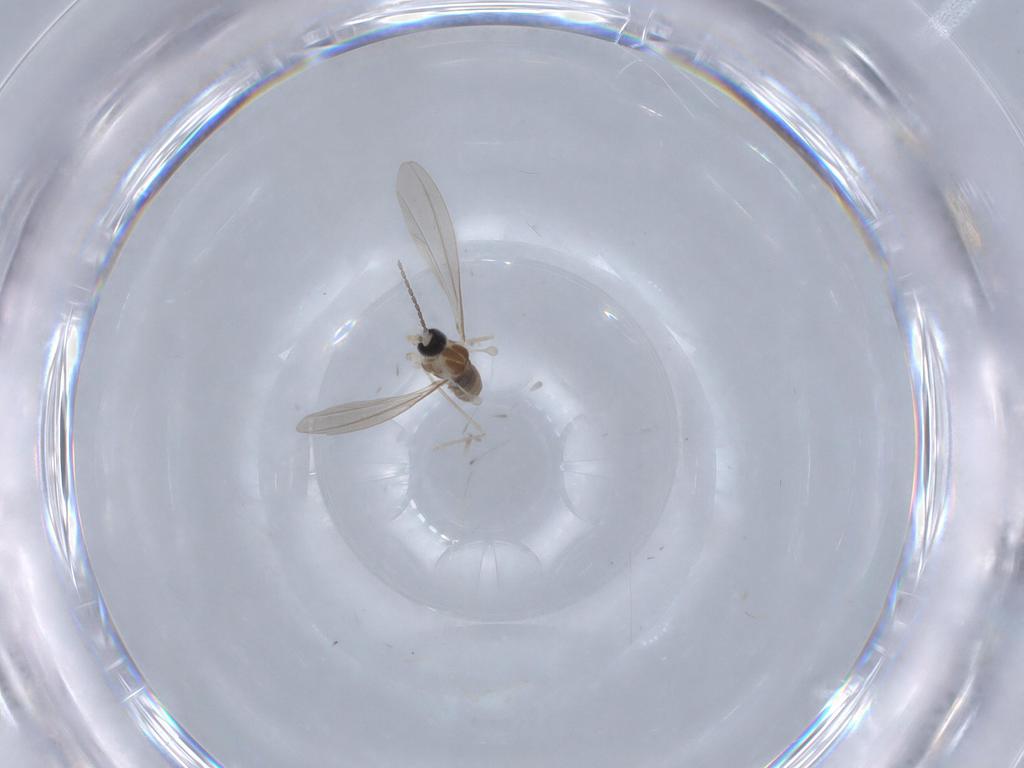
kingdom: Animalia
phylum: Arthropoda
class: Insecta
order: Diptera
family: Cecidomyiidae
